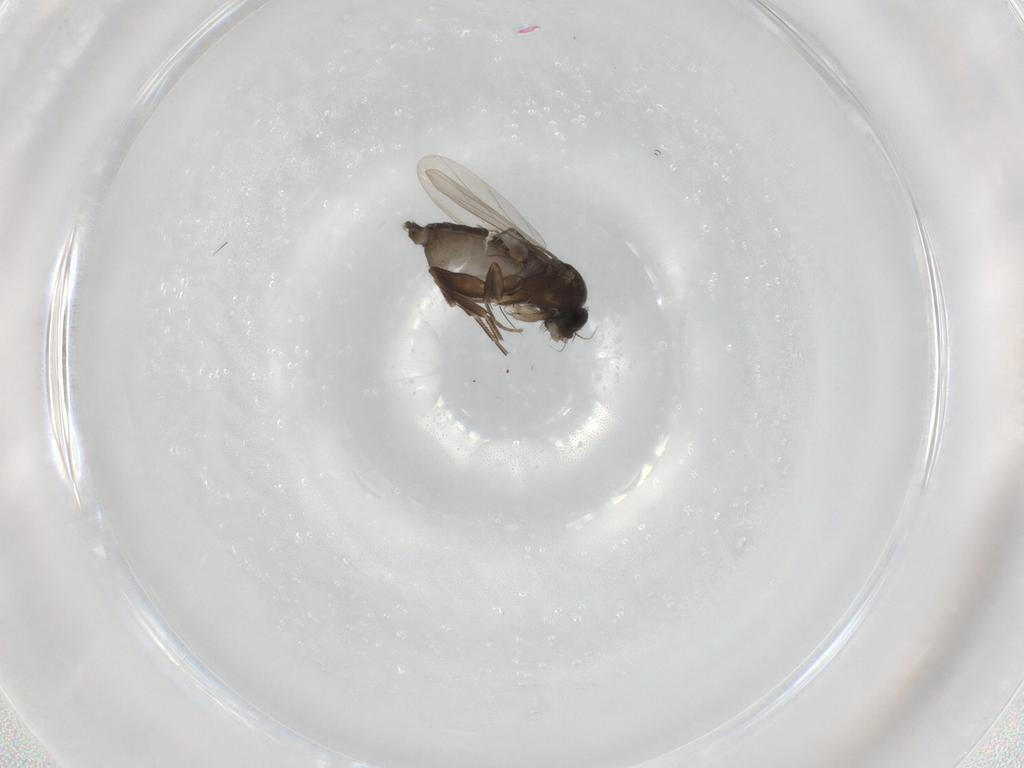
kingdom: Animalia
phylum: Arthropoda
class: Insecta
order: Diptera
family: Phoridae
